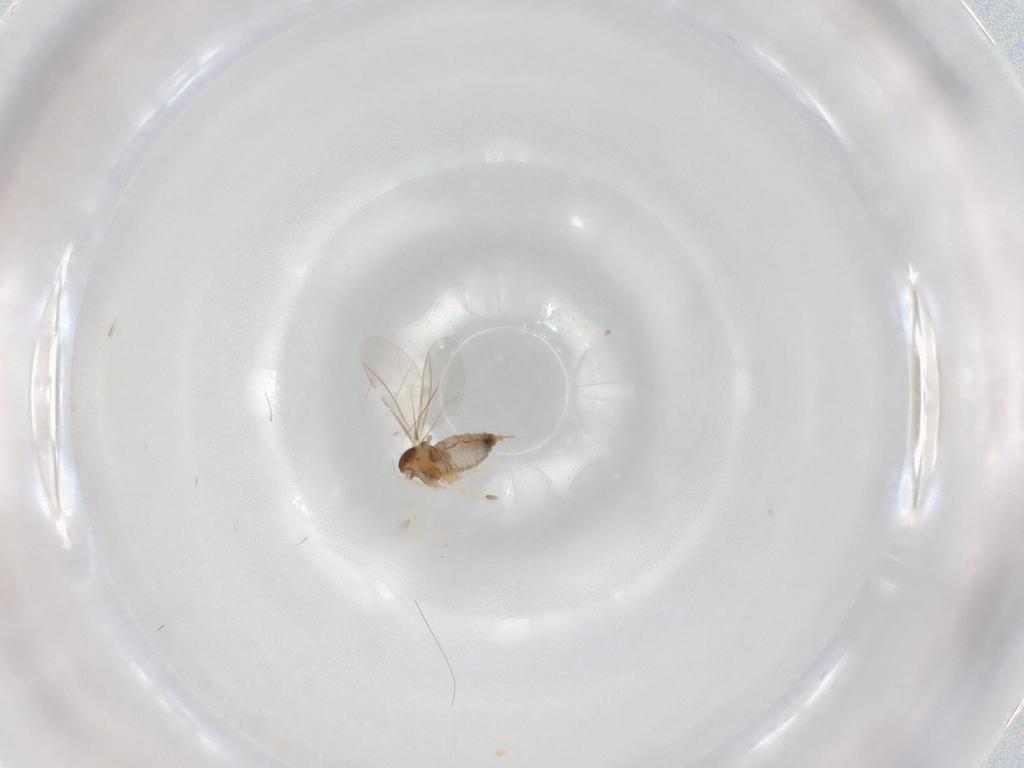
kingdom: Animalia
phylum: Arthropoda
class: Insecta
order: Diptera
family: Cecidomyiidae
